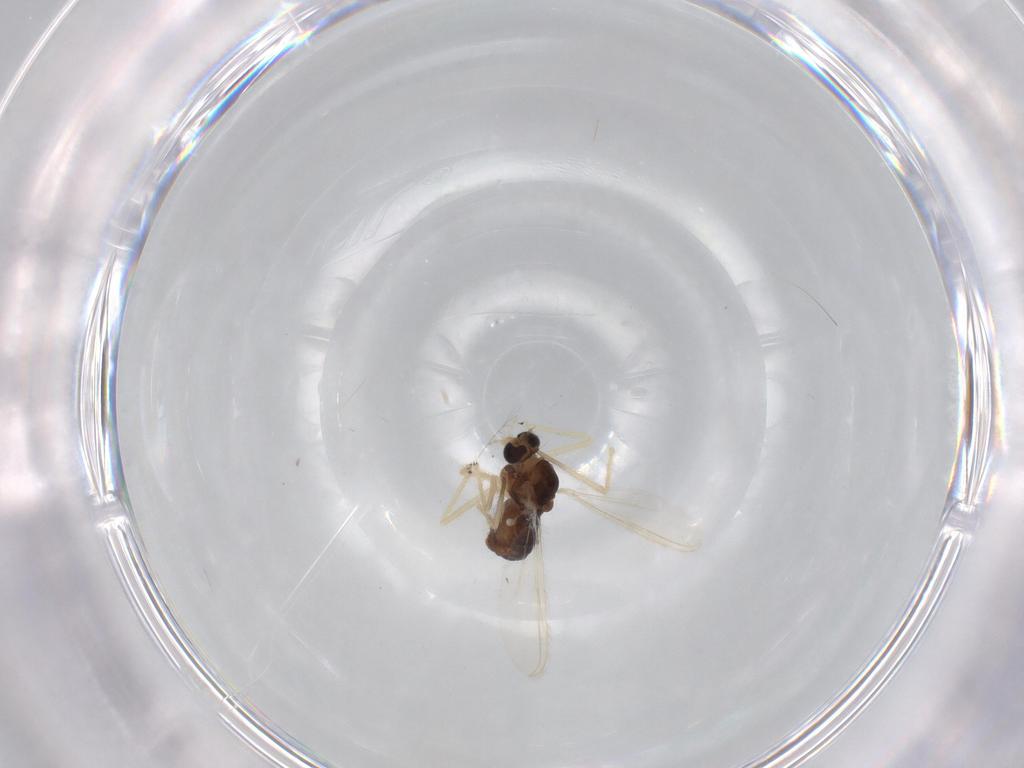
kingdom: Animalia
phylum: Arthropoda
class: Insecta
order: Diptera
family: Chironomidae
